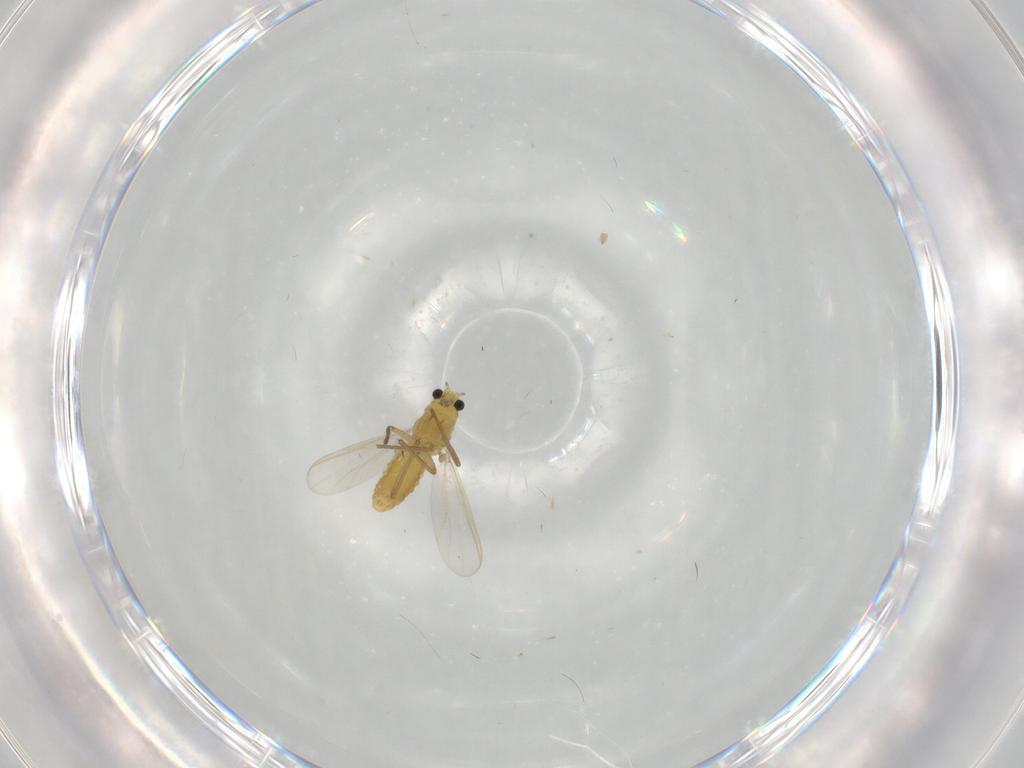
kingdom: Animalia
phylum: Arthropoda
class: Insecta
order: Diptera
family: Chironomidae
